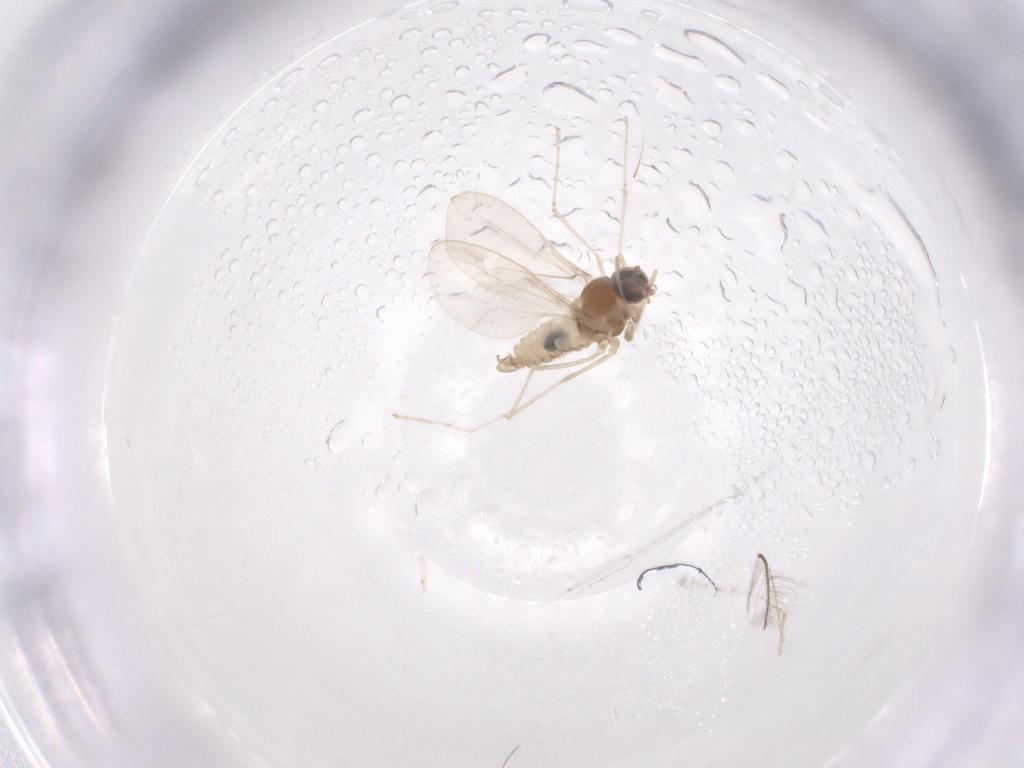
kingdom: Animalia
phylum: Arthropoda
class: Insecta
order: Diptera
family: Cecidomyiidae
